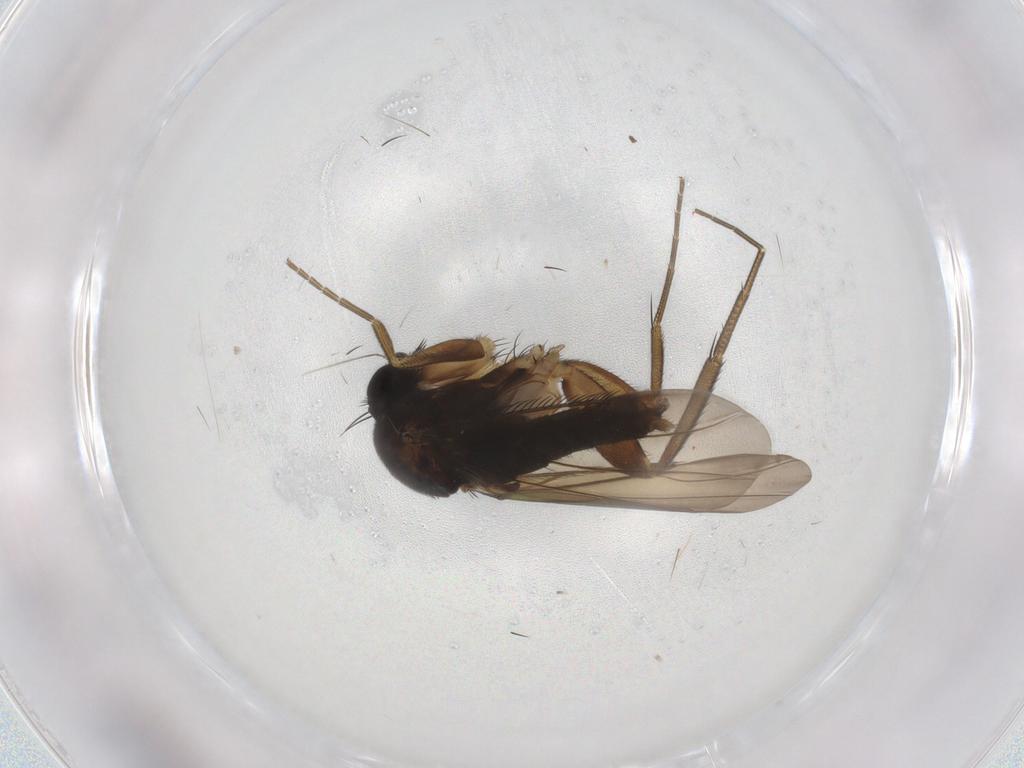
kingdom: Animalia
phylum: Arthropoda
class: Insecta
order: Diptera
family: Phoridae
